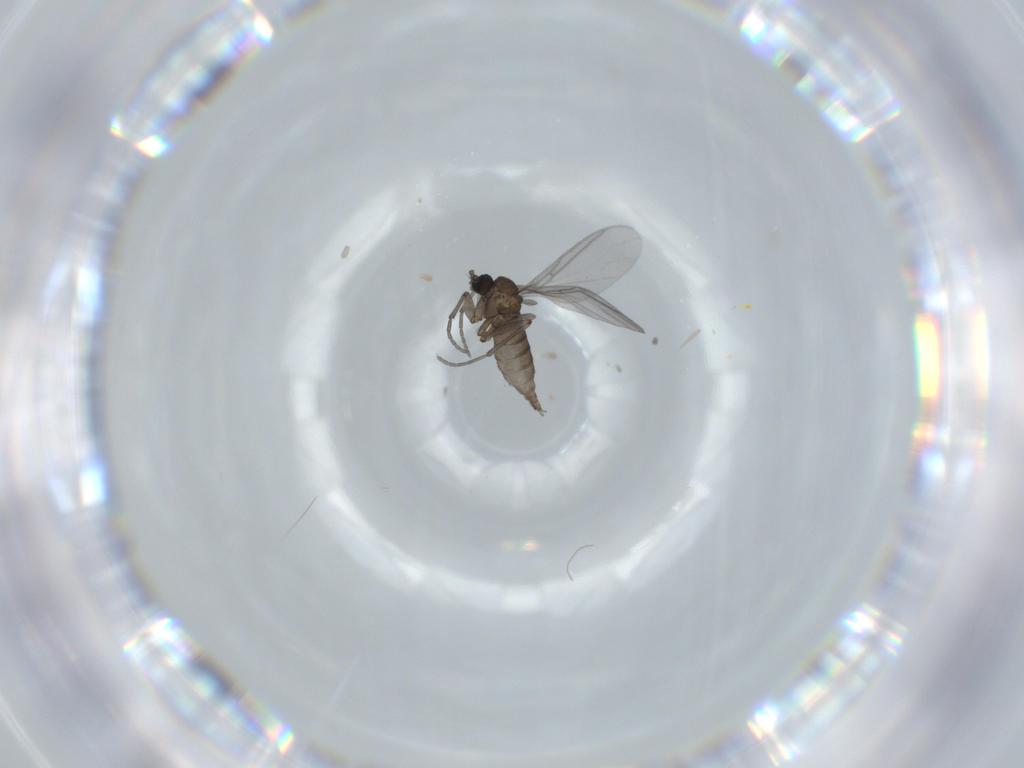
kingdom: Animalia
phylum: Arthropoda
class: Insecta
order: Diptera
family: Sciaridae
